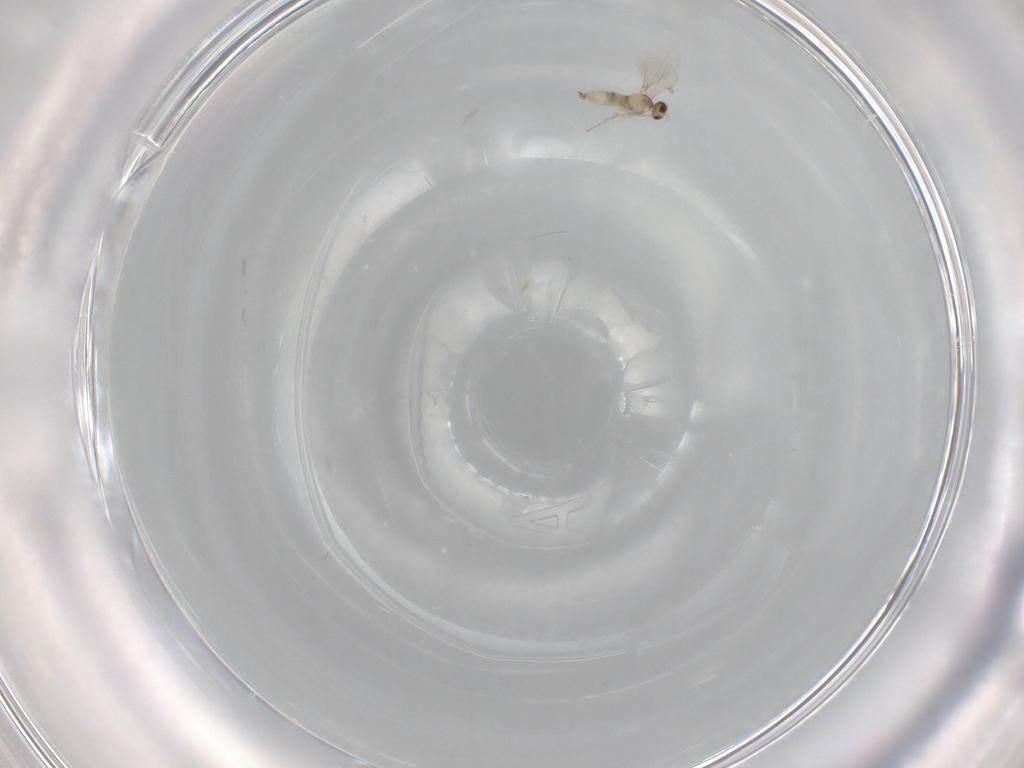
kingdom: Animalia
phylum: Arthropoda
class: Insecta
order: Diptera
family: Cecidomyiidae
